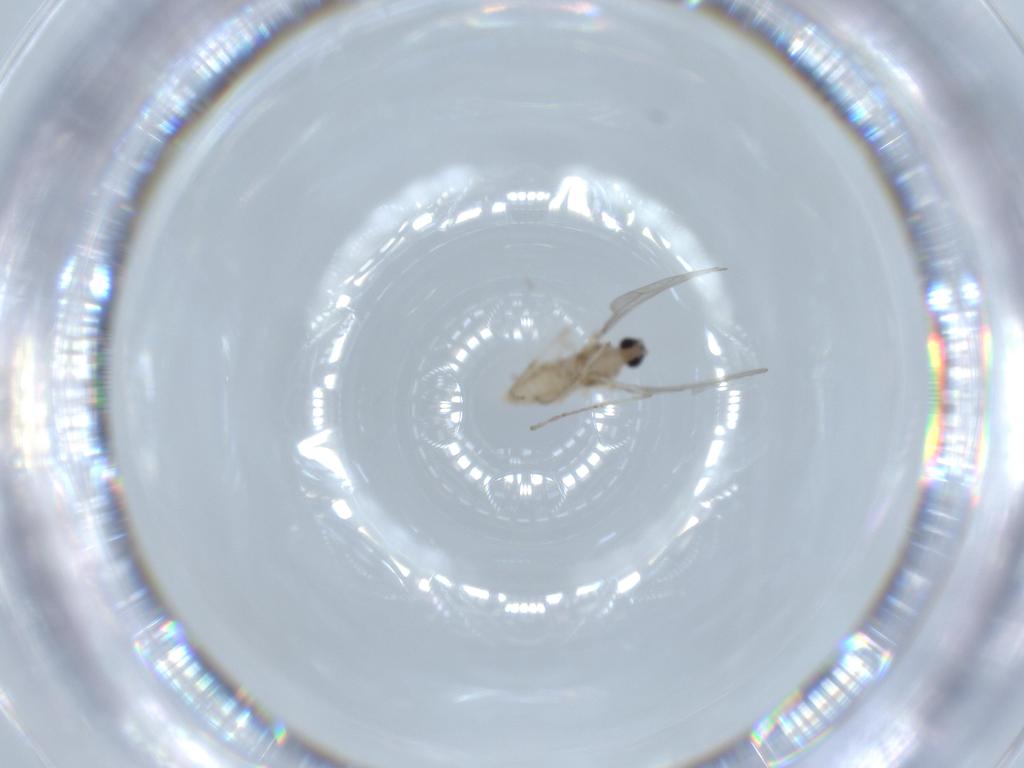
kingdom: Animalia
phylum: Arthropoda
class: Insecta
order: Diptera
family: Cecidomyiidae
